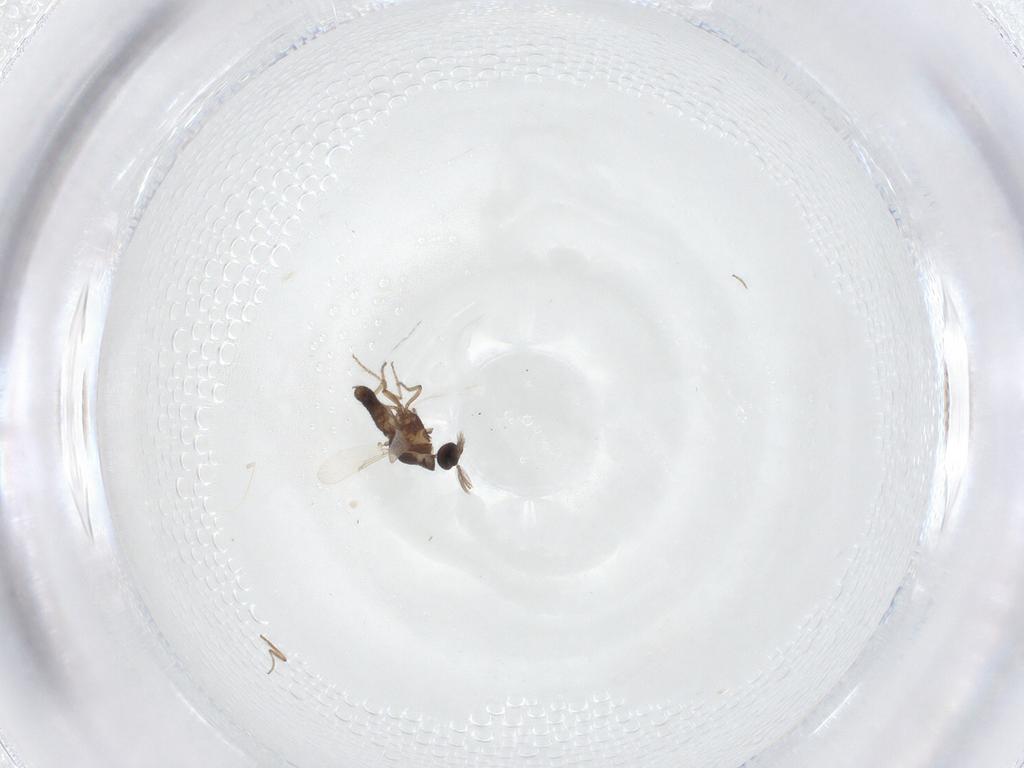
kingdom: Animalia
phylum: Arthropoda
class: Insecta
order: Diptera
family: Ceratopogonidae
